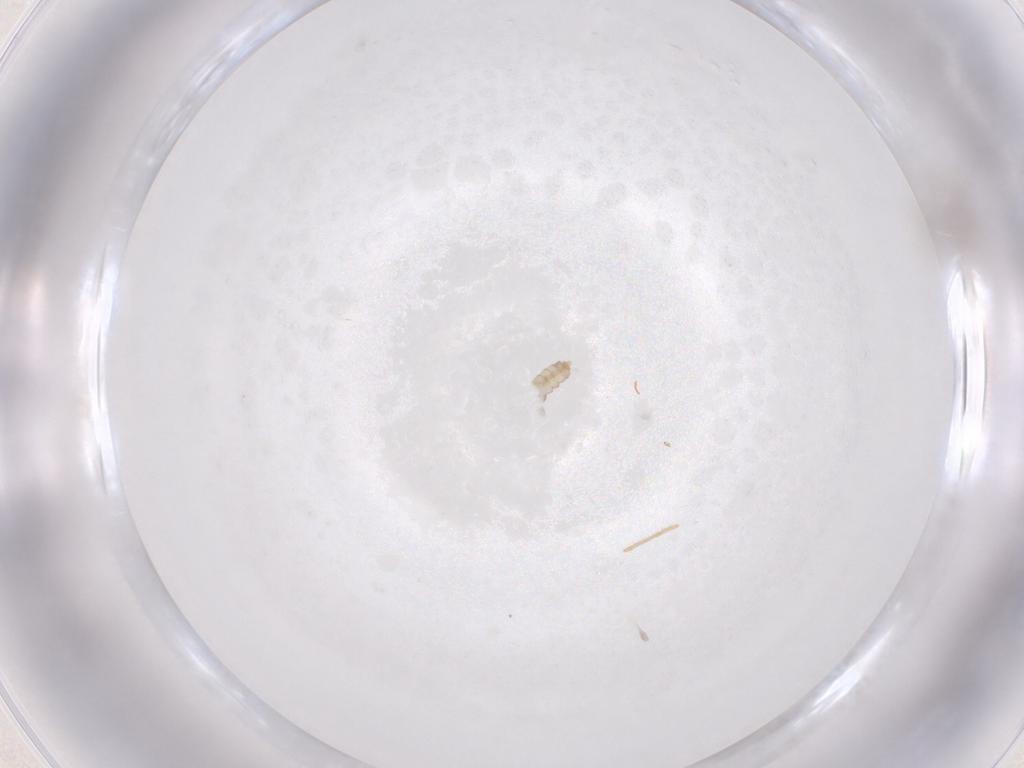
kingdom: Animalia
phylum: Arthropoda
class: Insecta
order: Diptera
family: Cecidomyiidae
